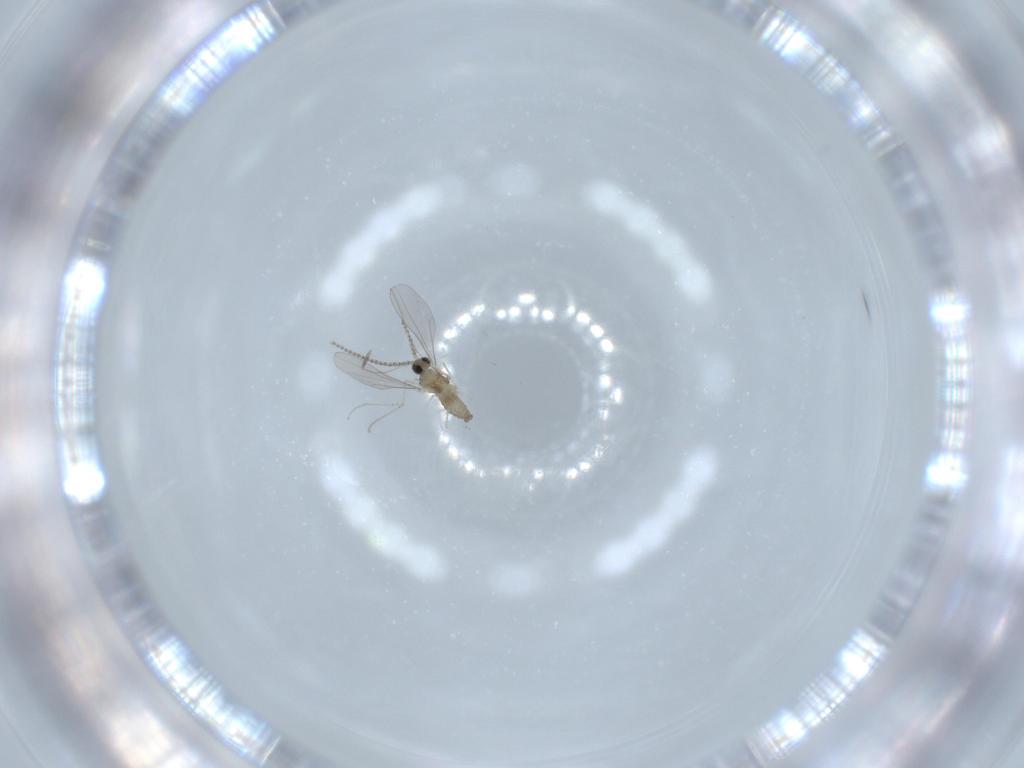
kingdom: Animalia
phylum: Arthropoda
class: Insecta
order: Diptera
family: Cecidomyiidae
